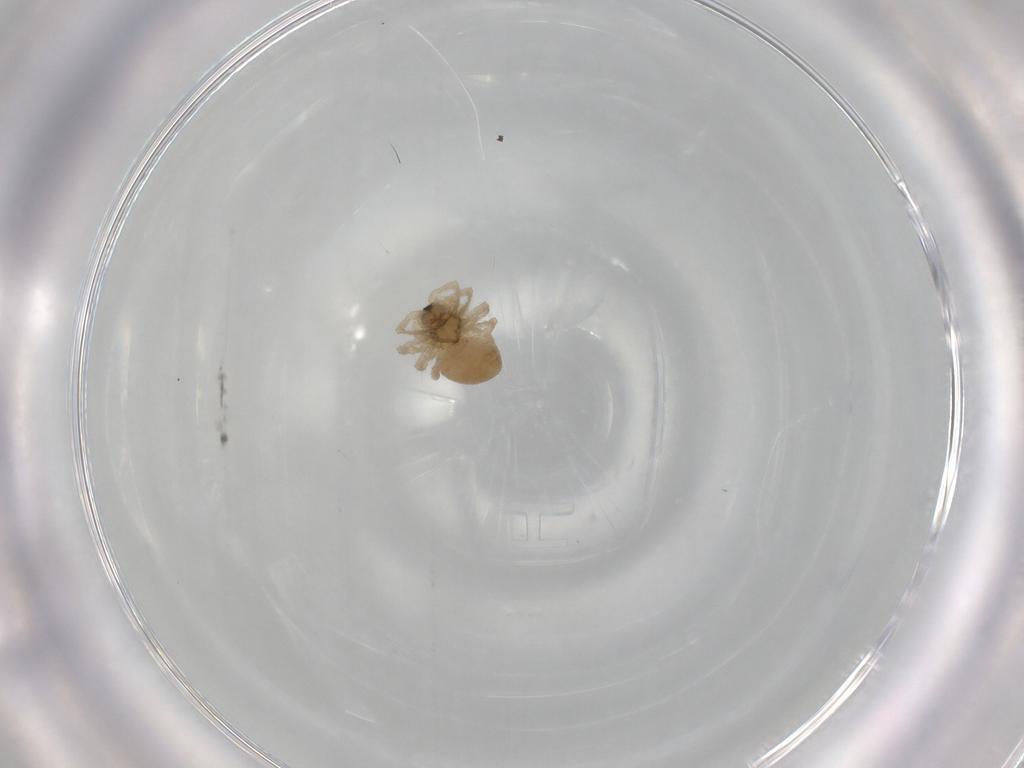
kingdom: Animalia
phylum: Arthropoda
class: Arachnida
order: Araneae
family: Linyphiidae
